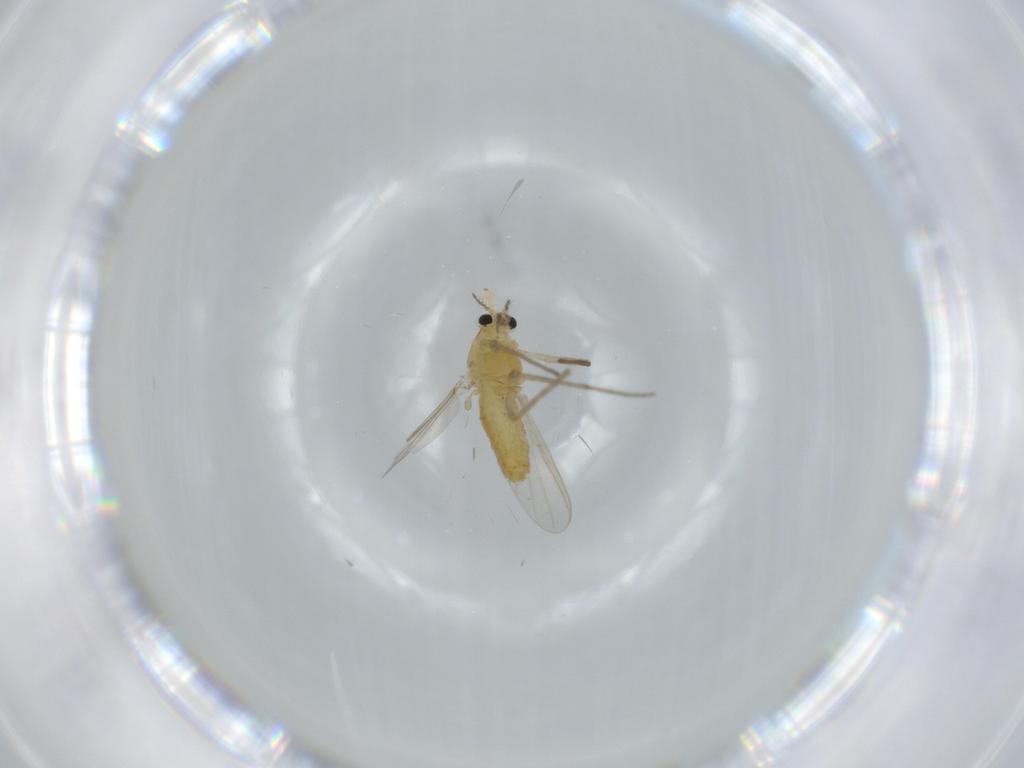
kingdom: Animalia
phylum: Arthropoda
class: Insecta
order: Diptera
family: Chironomidae
